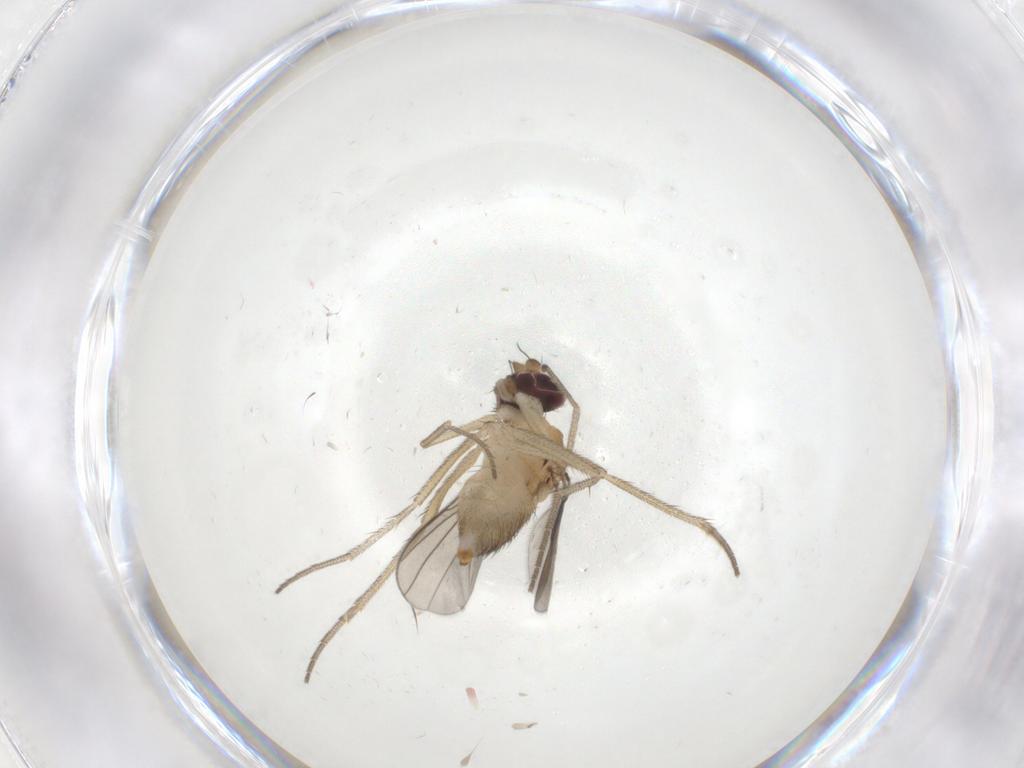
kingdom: Animalia
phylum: Arthropoda
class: Insecta
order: Diptera
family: Dolichopodidae
